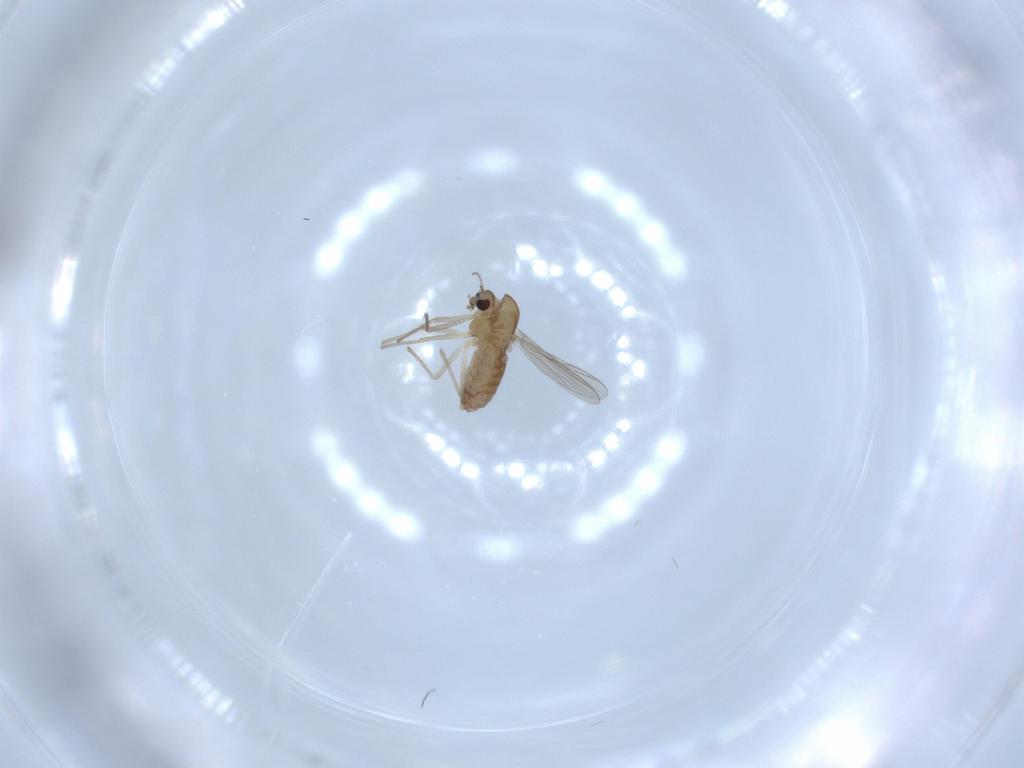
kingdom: Animalia
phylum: Arthropoda
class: Insecta
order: Diptera
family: Chironomidae
